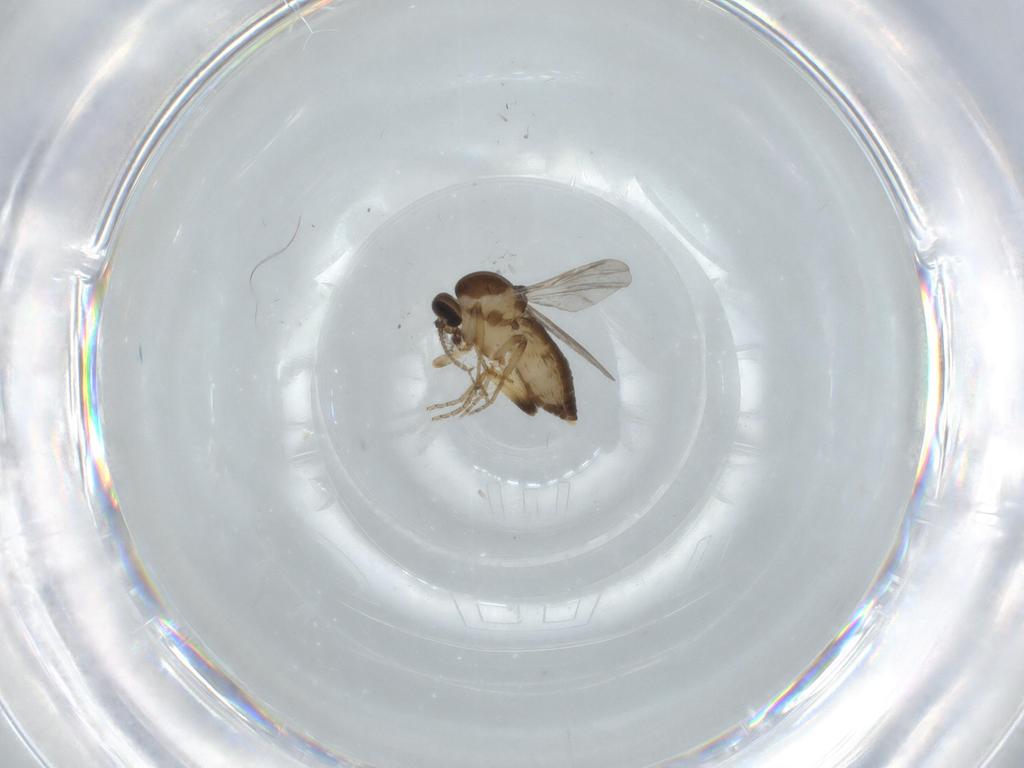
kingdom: Animalia
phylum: Arthropoda
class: Insecta
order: Diptera
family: Ceratopogonidae
